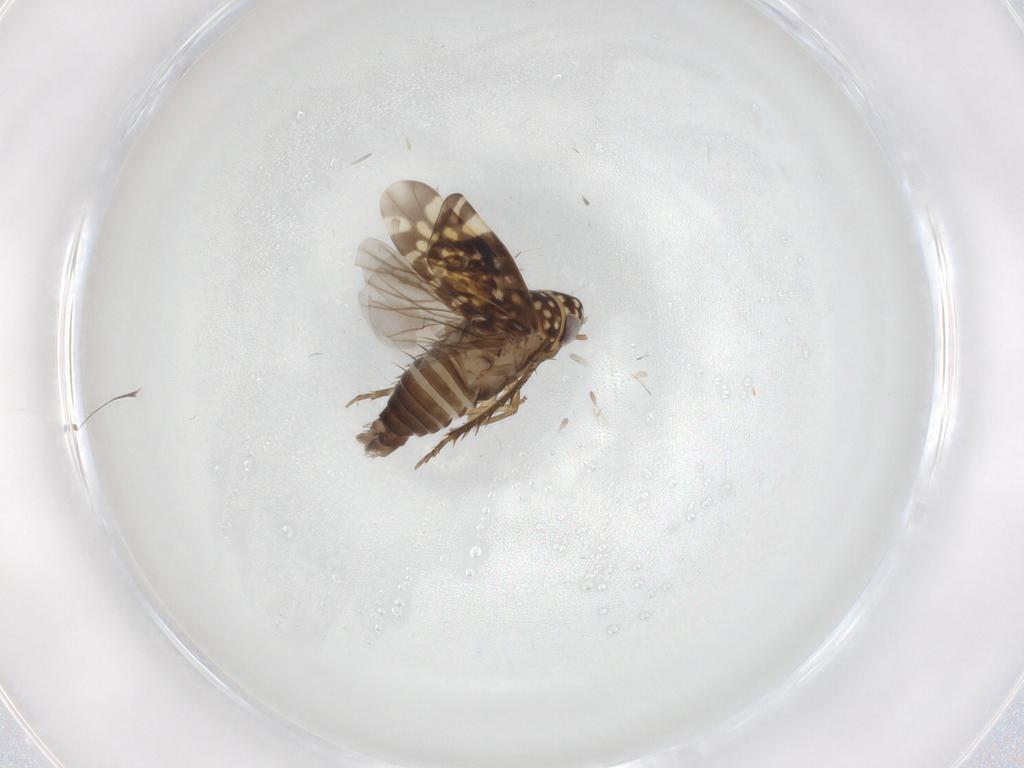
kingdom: Animalia
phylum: Arthropoda
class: Insecta
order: Hemiptera
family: Cicadellidae
